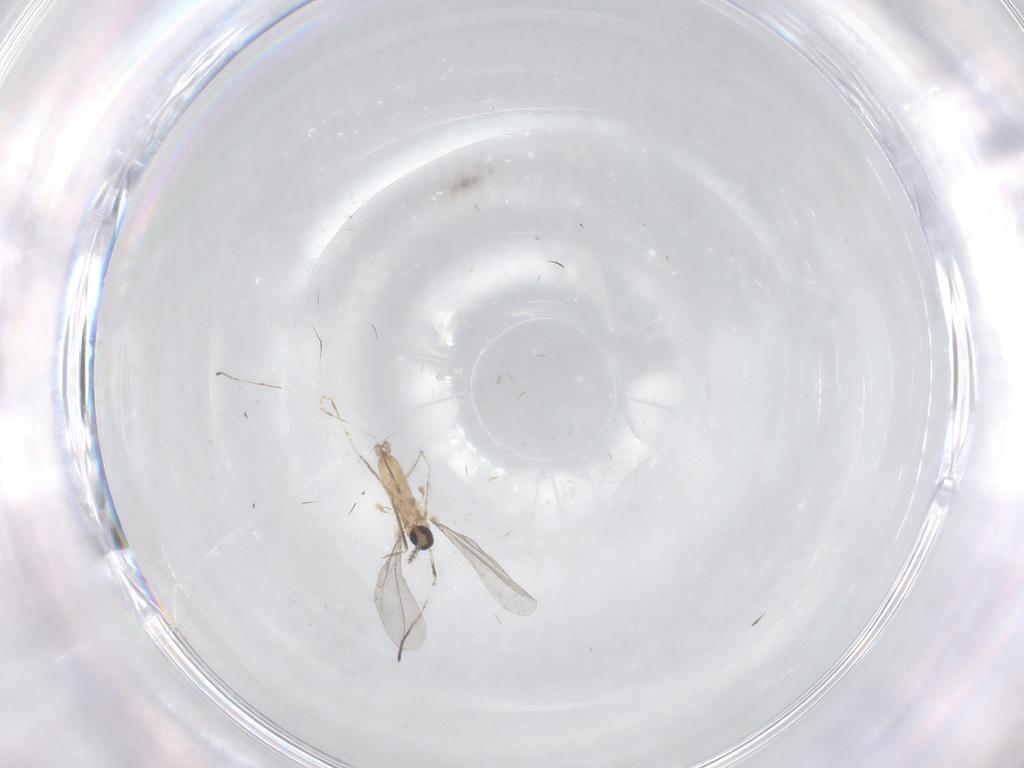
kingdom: Animalia
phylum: Arthropoda
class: Insecta
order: Diptera
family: Cecidomyiidae
